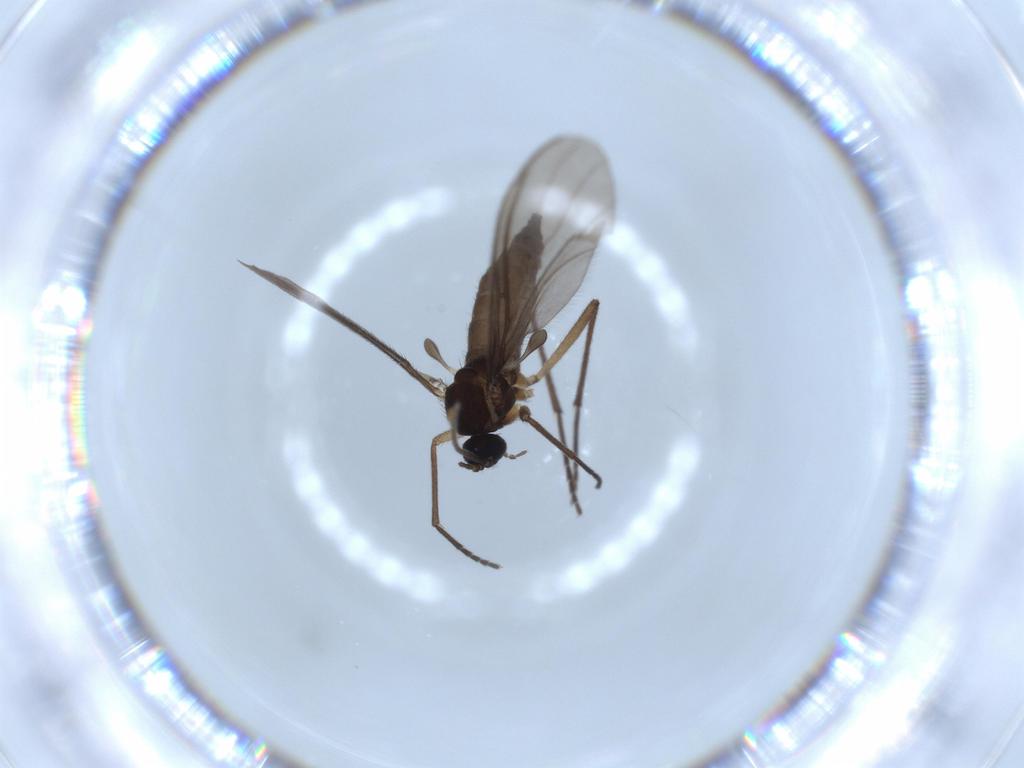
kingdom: Animalia
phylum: Arthropoda
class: Insecta
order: Diptera
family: Sciaridae
